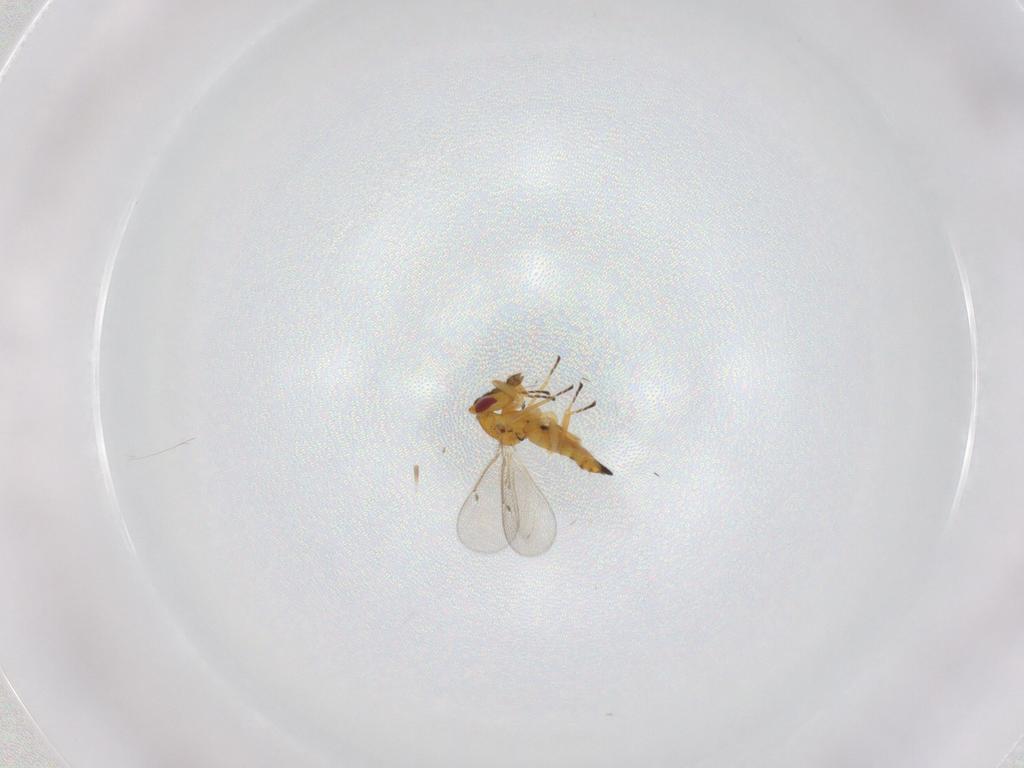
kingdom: Animalia
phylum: Arthropoda
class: Insecta
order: Hymenoptera
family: Eulophidae
